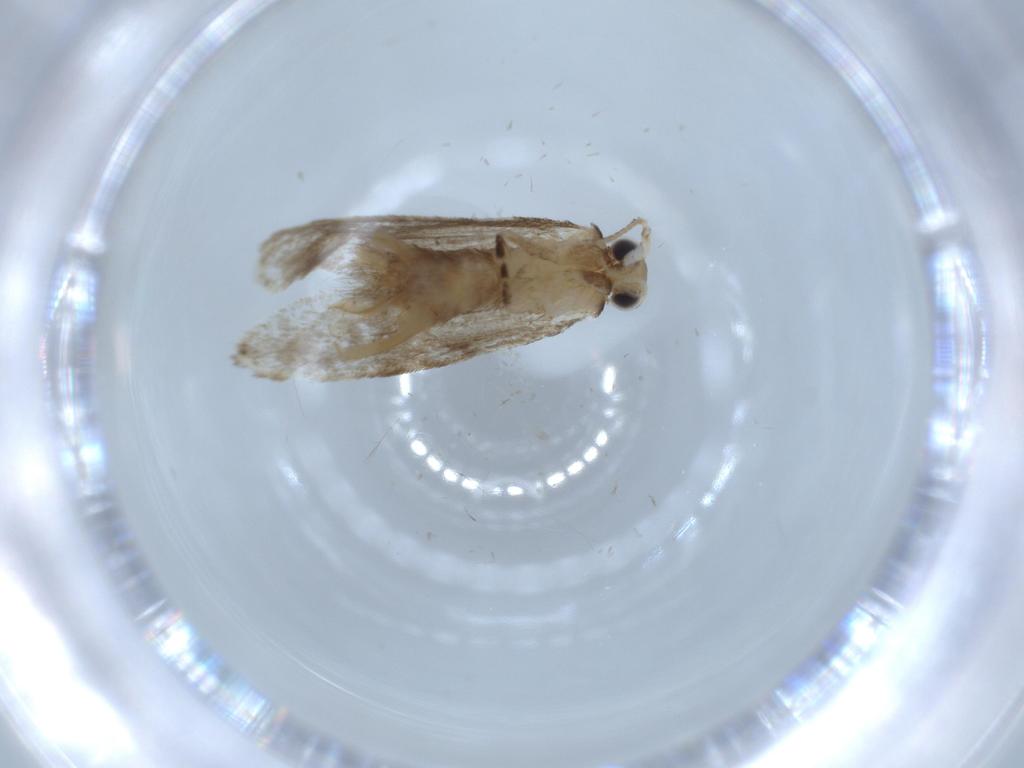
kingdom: Animalia
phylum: Arthropoda
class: Insecta
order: Lepidoptera
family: Tineidae
